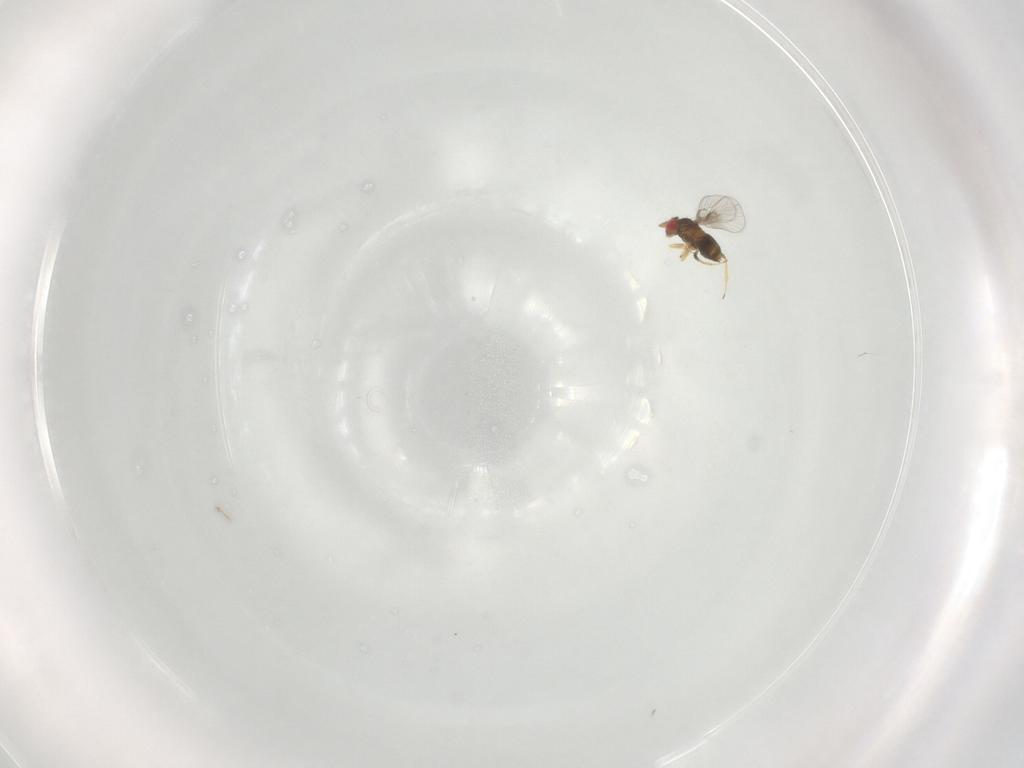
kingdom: Animalia
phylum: Arthropoda
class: Insecta
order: Hymenoptera
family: Trichogrammatidae
